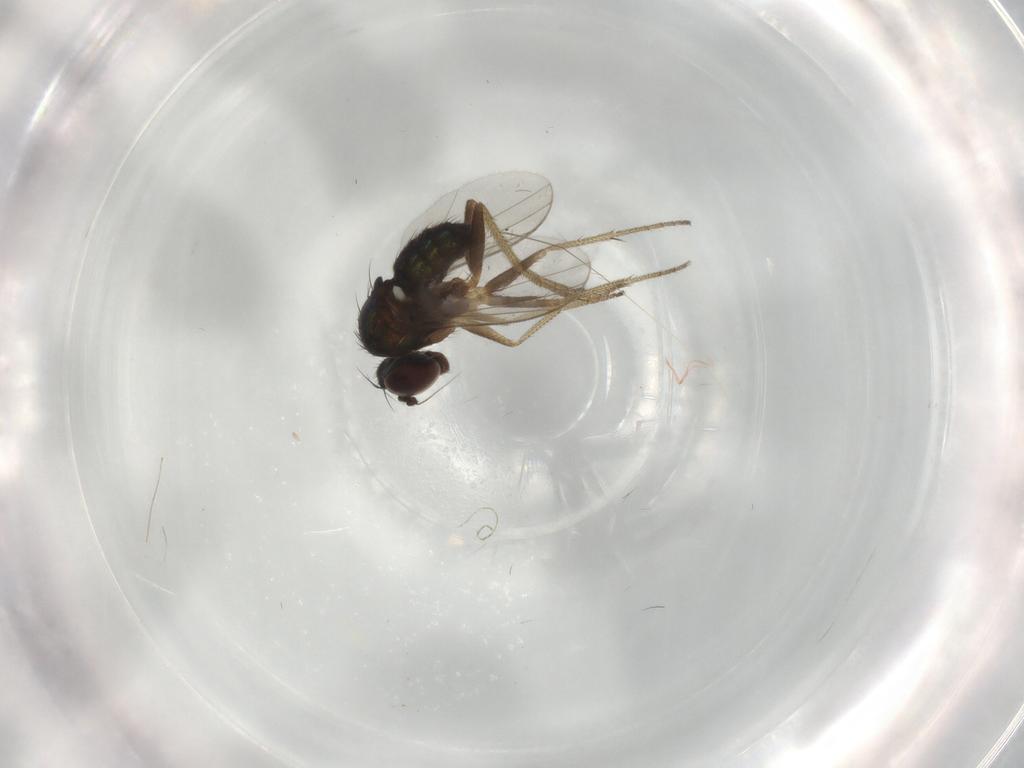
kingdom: Animalia
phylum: Arthropoda
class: Insecta
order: Diptera
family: Dolichopodidae
